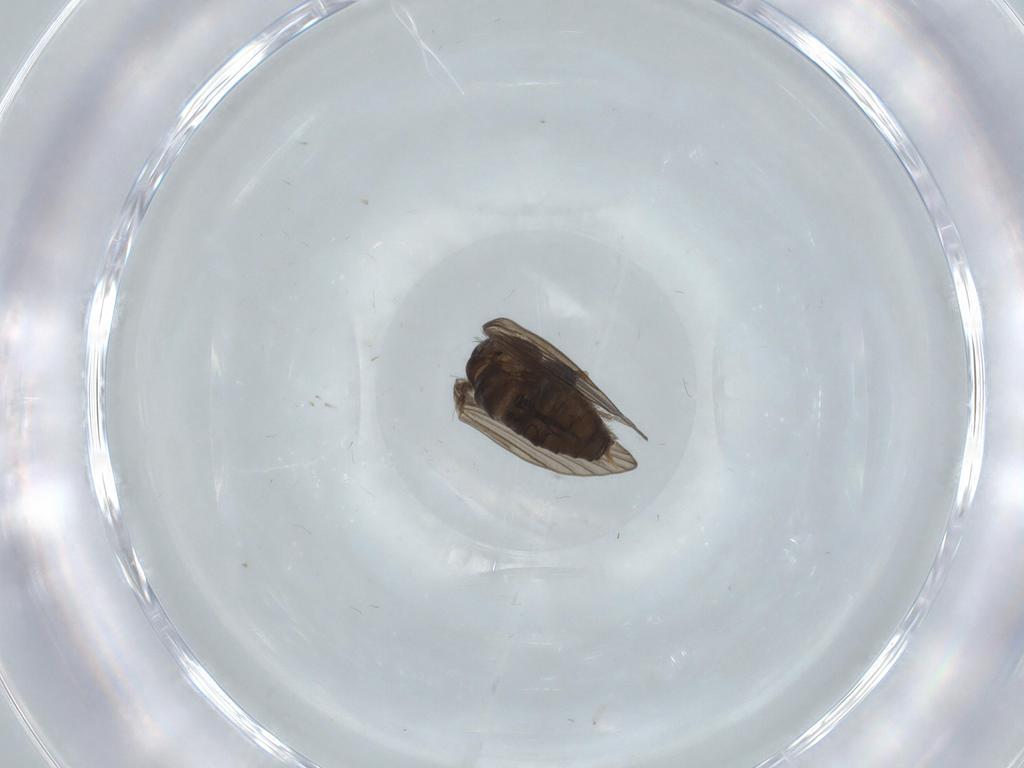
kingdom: Animalia
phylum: Arthropoda
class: Insecta
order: Diptera
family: Psychodidae
